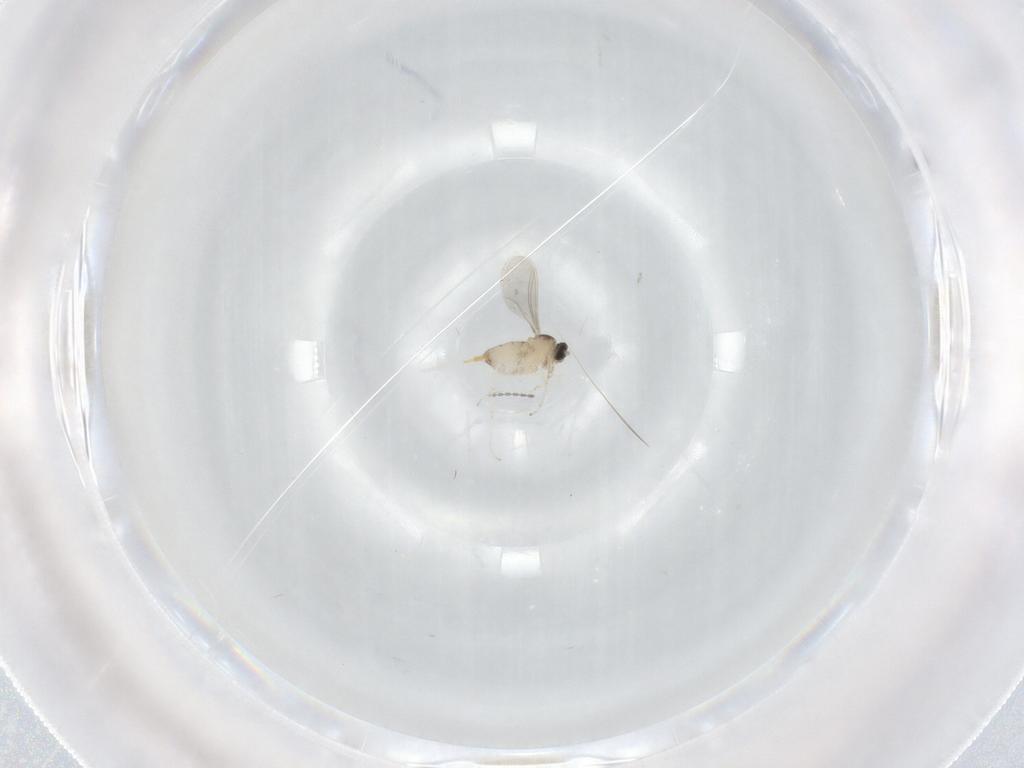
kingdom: Animalia
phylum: Arthropoda
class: Insecta
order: Diptera
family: Cecidomyiidae
